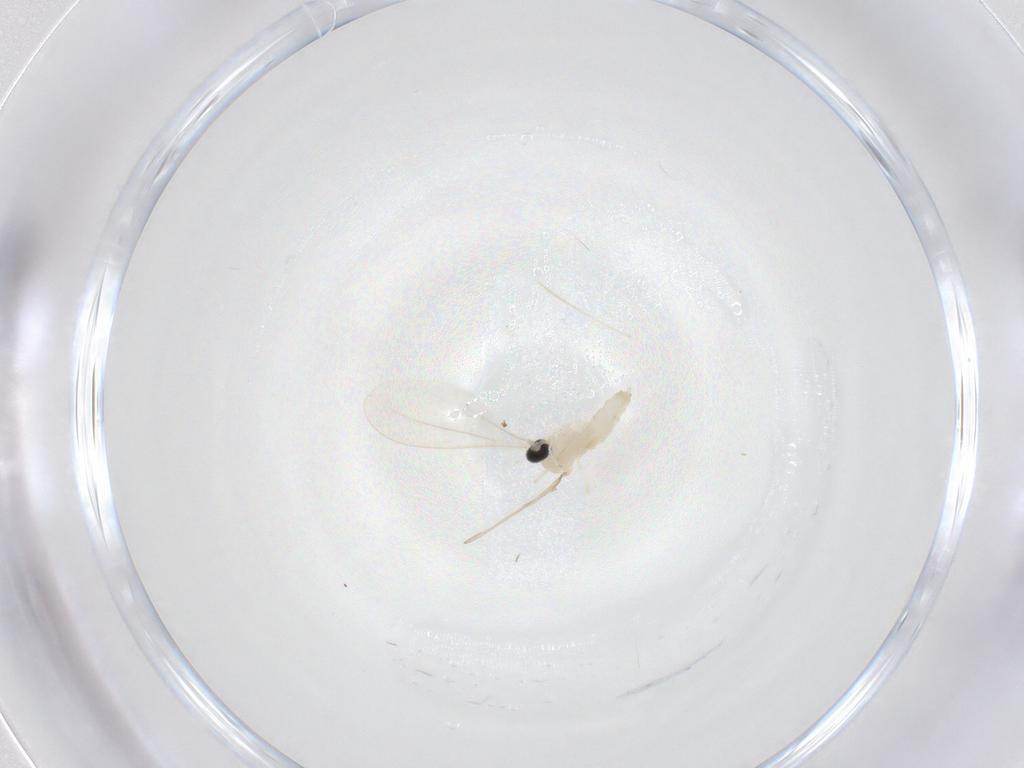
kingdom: Animalia
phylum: Arthropoda
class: Insecta
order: Diptera
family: Cecidomyiidae
